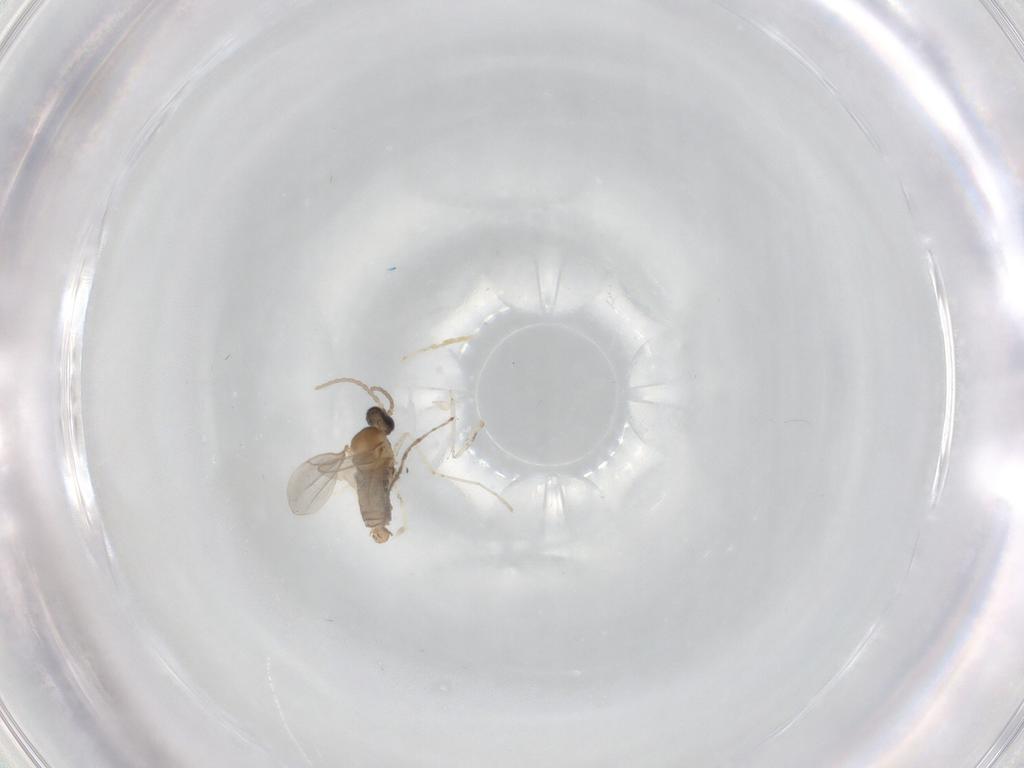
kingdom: Animalia
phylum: Arthropoda
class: Insecta
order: Diptera
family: Cecidomyiidae
